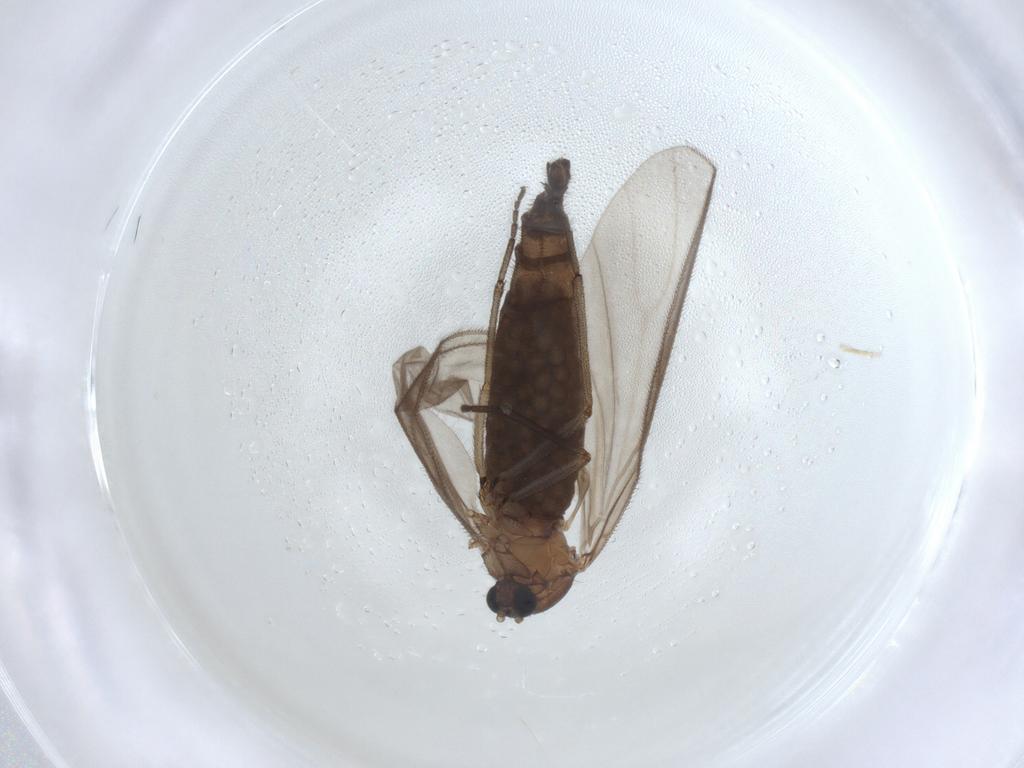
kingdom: Animalia
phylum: Arthropoda
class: Insecta
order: Diptera
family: Sciaridae
